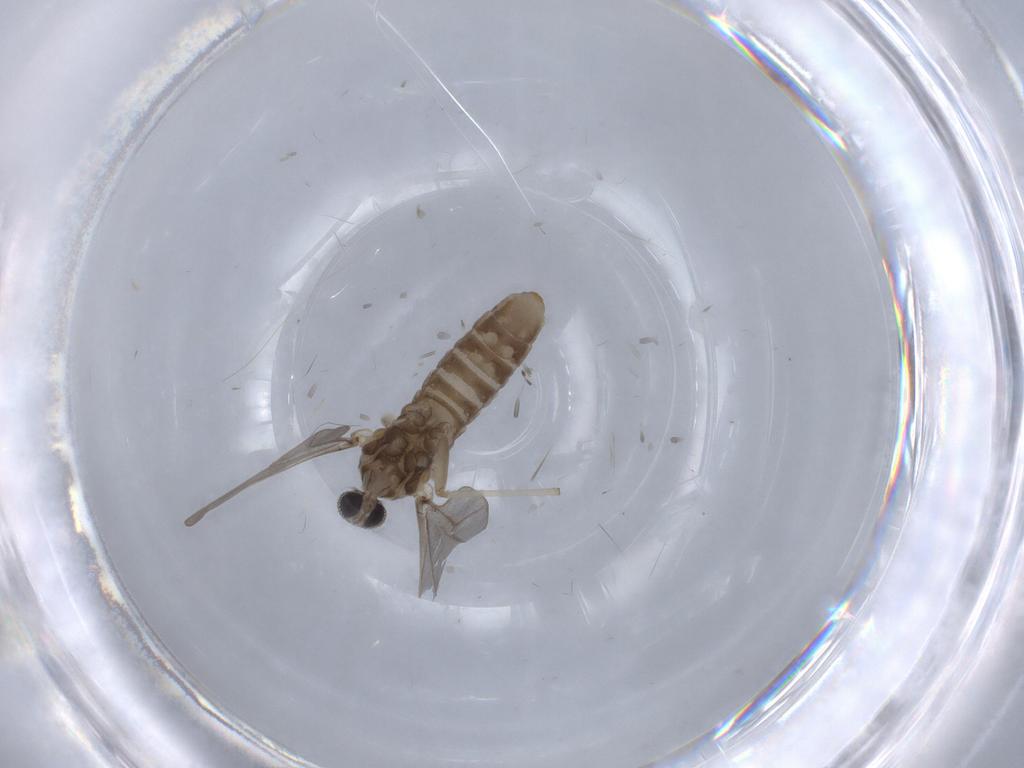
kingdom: Animalia
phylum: Arthropoda
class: Insecta
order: Diptera
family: Cecidomyiidae
